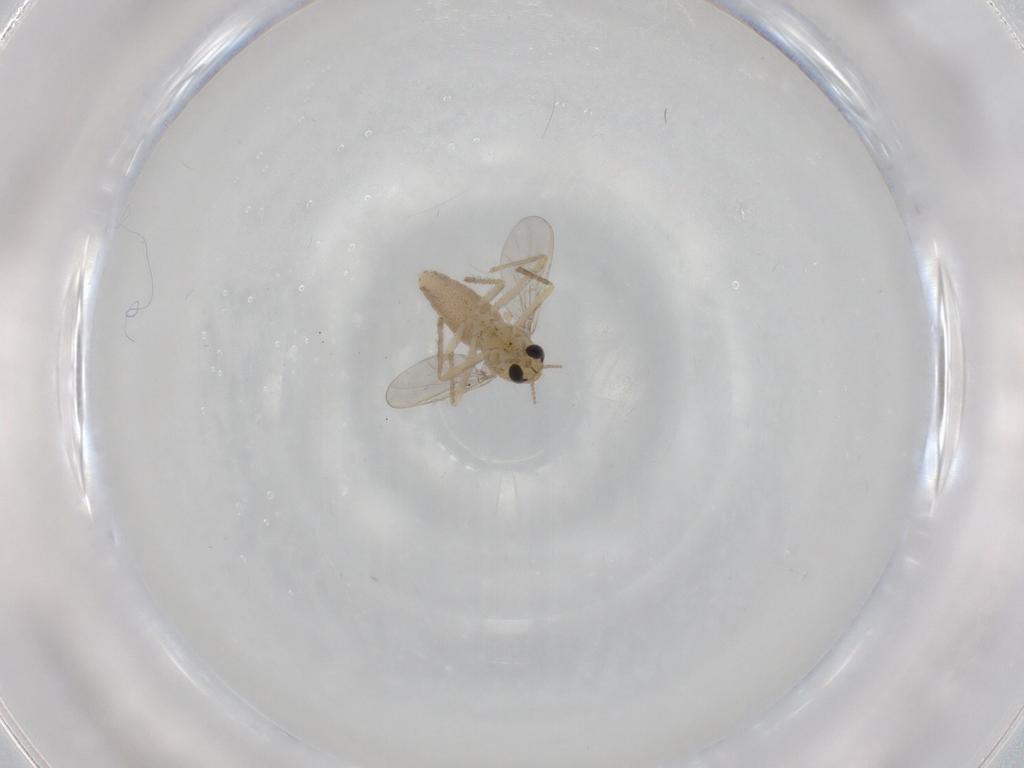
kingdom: Animalia
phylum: Arthropoda
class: Insecta
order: Diptera
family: Chironomidae
